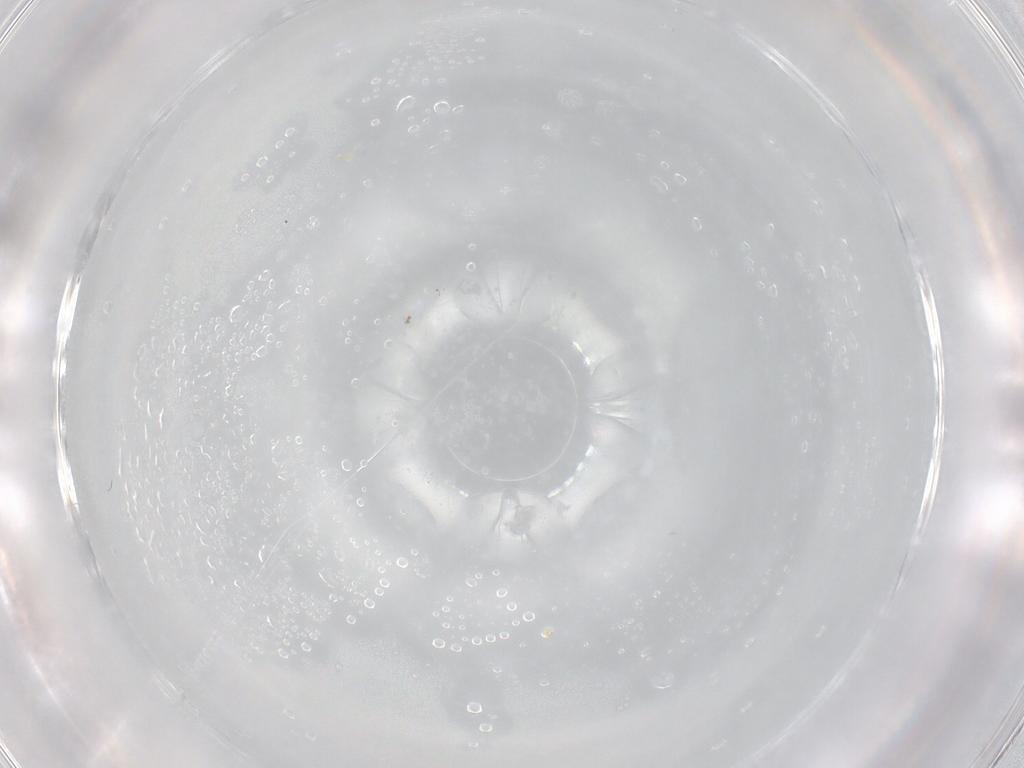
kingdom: Animalia
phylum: Arthropoda
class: Collembola
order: Entomobryomorpha
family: Entomobryidae
